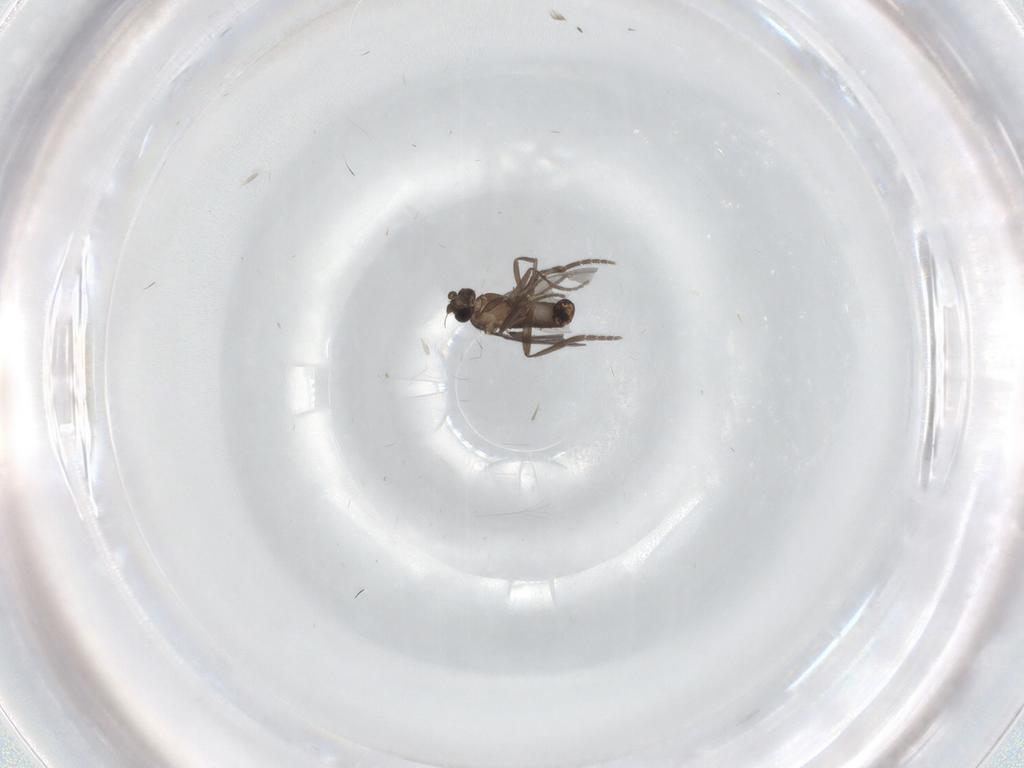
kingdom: Animalia
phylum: Arthropoda
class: Insecta
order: Diptera
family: Phoridae
